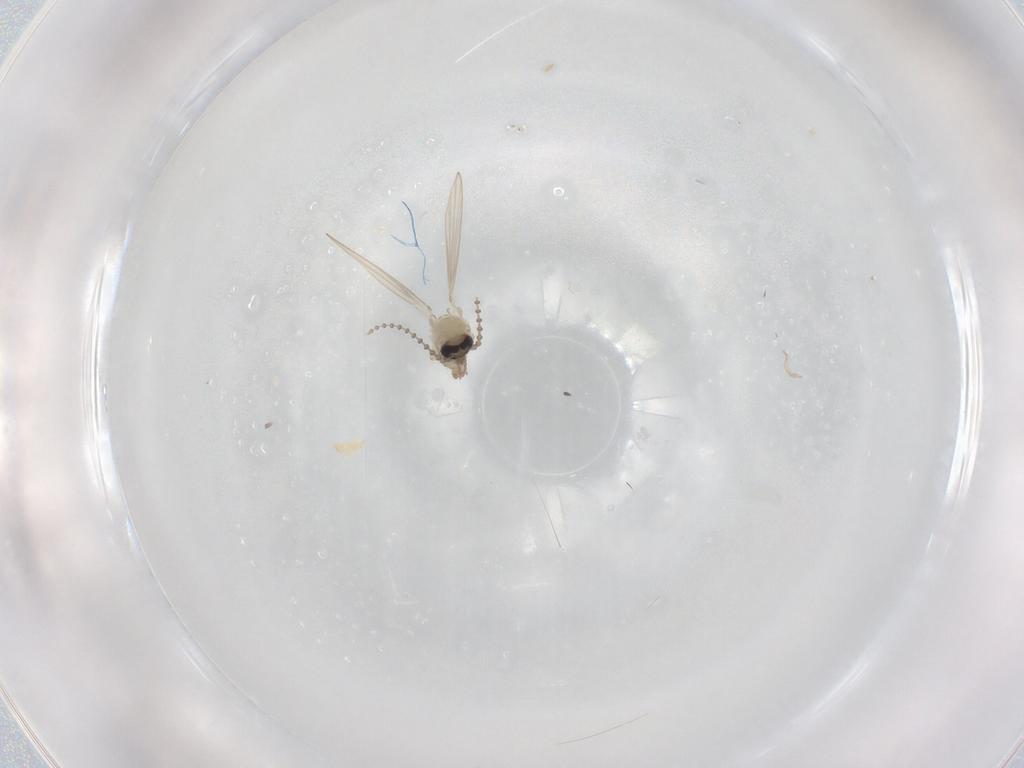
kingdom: Animalia
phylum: Arthropoda
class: Insecta
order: Diptera
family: Psychodidae
